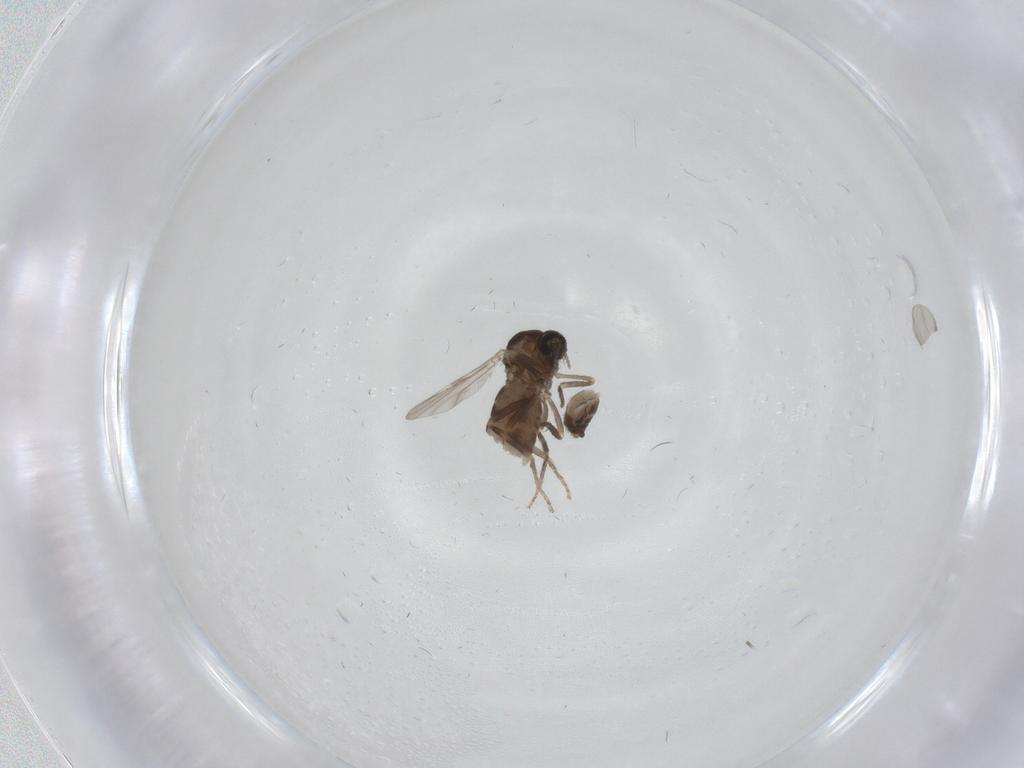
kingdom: Animalia
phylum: Arthropoda
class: Insecta
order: Diptera
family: Ceratopogonidae
